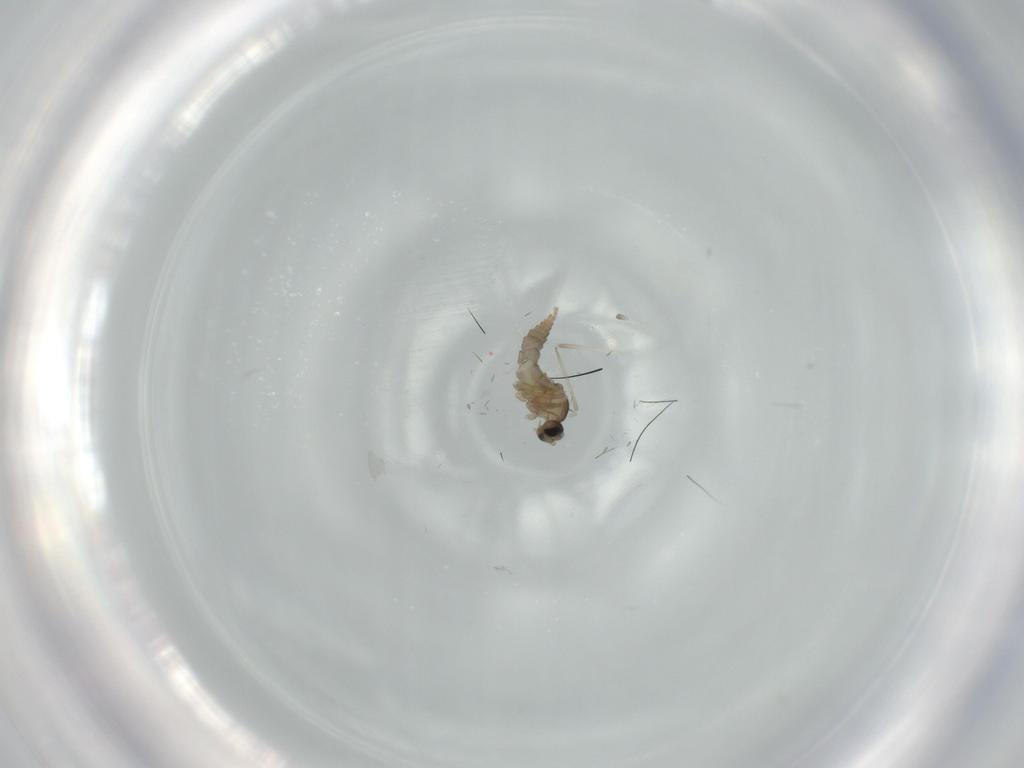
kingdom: Animalia
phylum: Arthropoda
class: Insecta
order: Diptera
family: Cecidomyiidae
